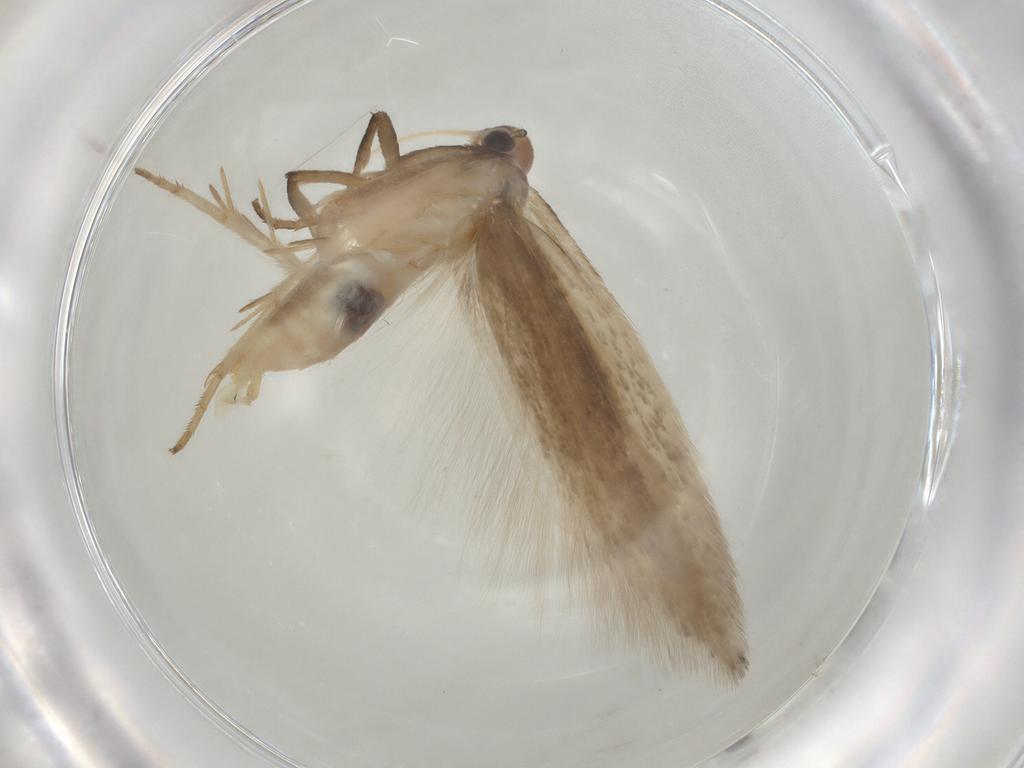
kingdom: Animalia
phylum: Arthropoda
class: Insecta
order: Lepidoptera
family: Gelechiidae
